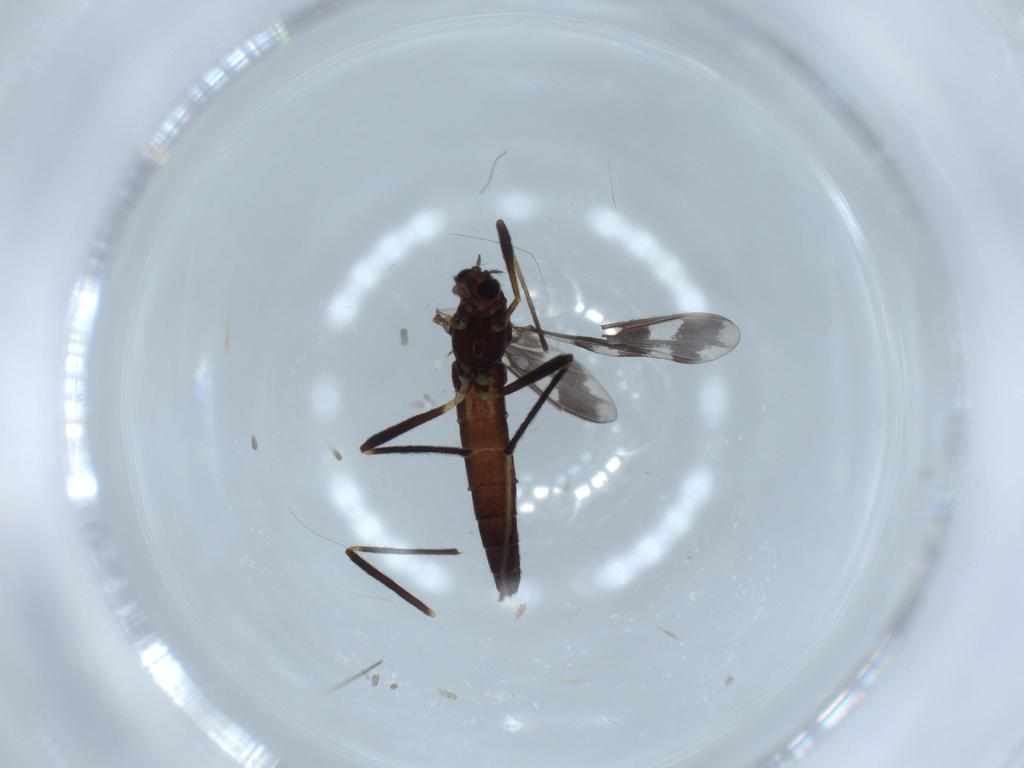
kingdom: Animalia
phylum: Arthropoda
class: Insecta
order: Diptera
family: Chironomidae
